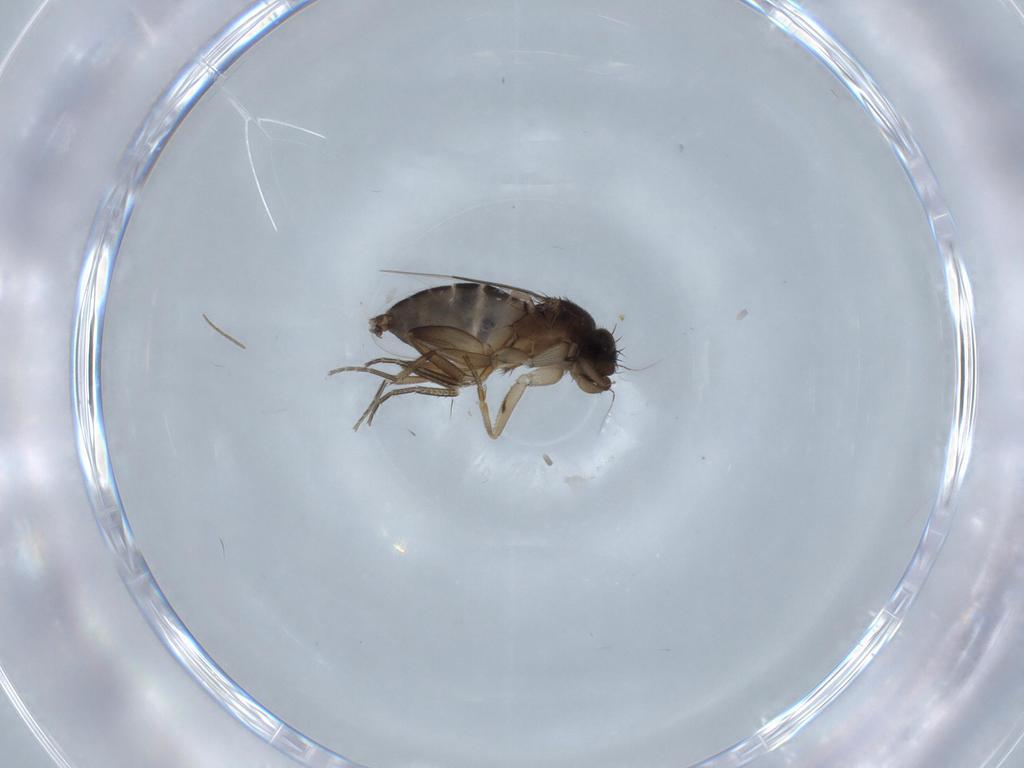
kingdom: Animalia
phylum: Arthropoda
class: Insecta
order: Diptera
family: Phoridae
